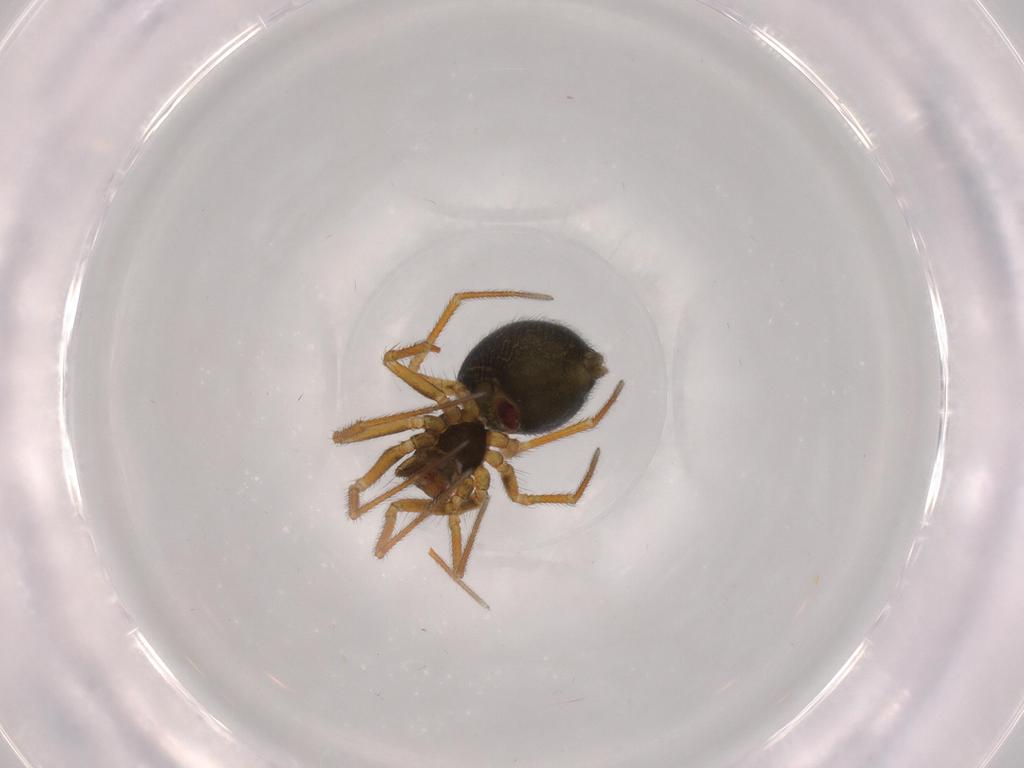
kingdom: Animalia
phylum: Arthropoda
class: Arachnida
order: Araneae
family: Linyphiidae
